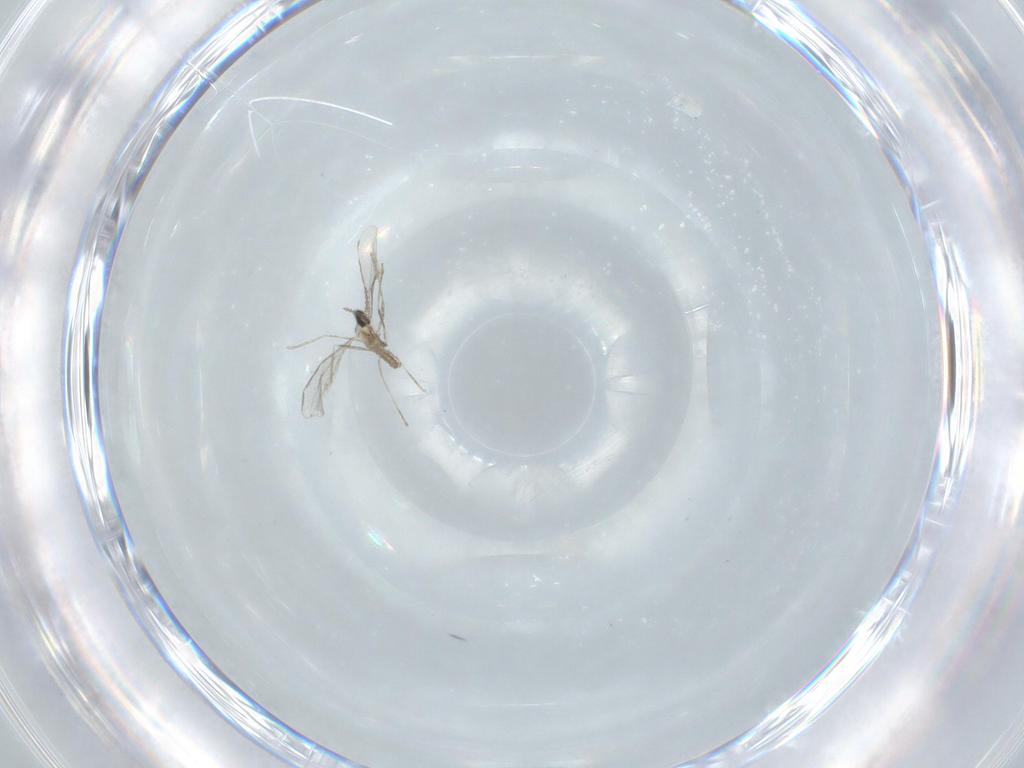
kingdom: Animalia
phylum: Arthropoda
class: Insecta
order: Diptera
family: Cecidomyiidae
